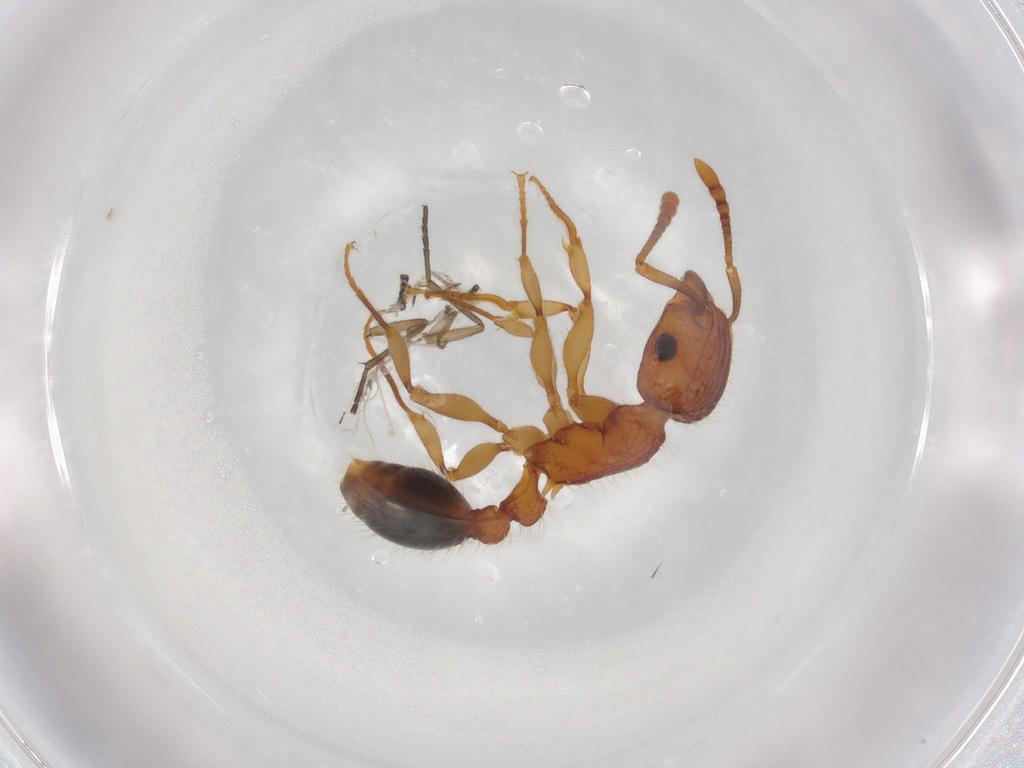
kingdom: Animalia
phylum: Arthropoda
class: Insecta
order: Hymenoptera
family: Formicidae
